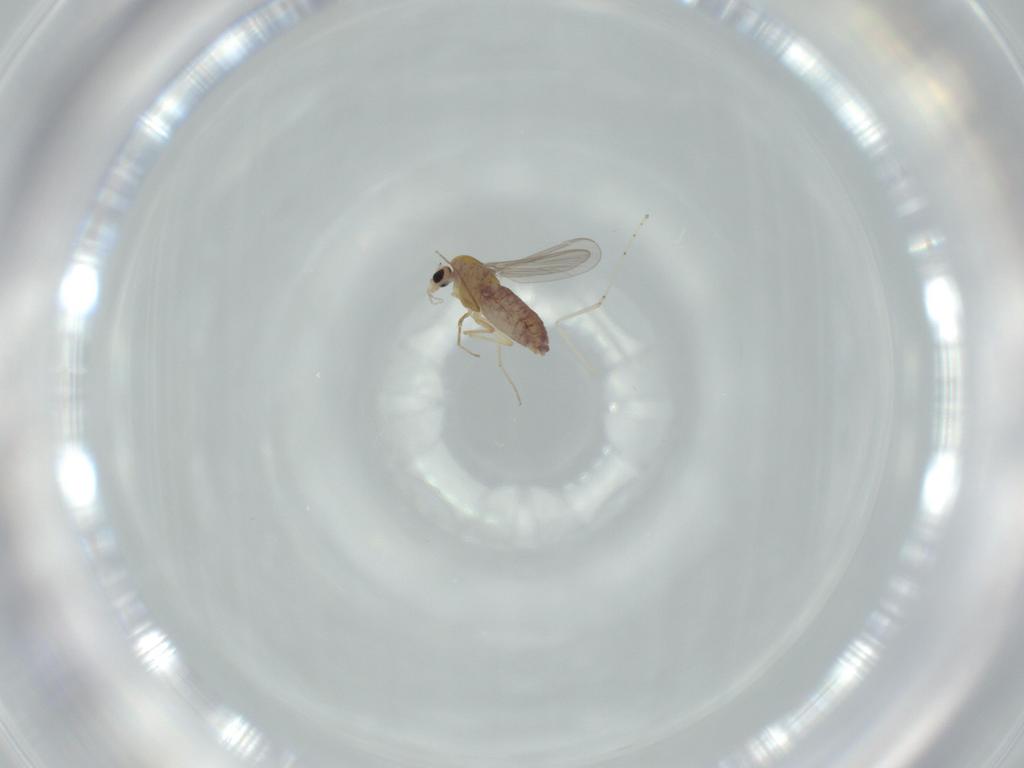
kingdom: Animalia
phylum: Arthropoda
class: Insecta
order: Diptera
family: Chironomidae
